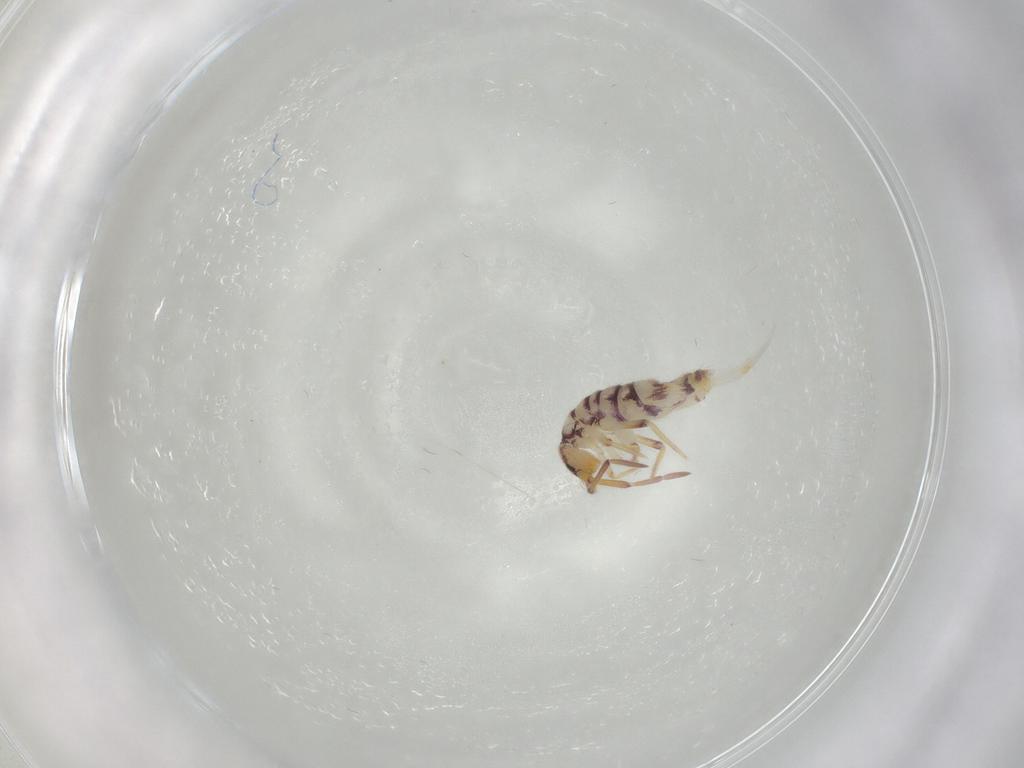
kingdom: Animalia
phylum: Arthropoda
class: Collembola
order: Entomobryomorpha
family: Entomobryidae
